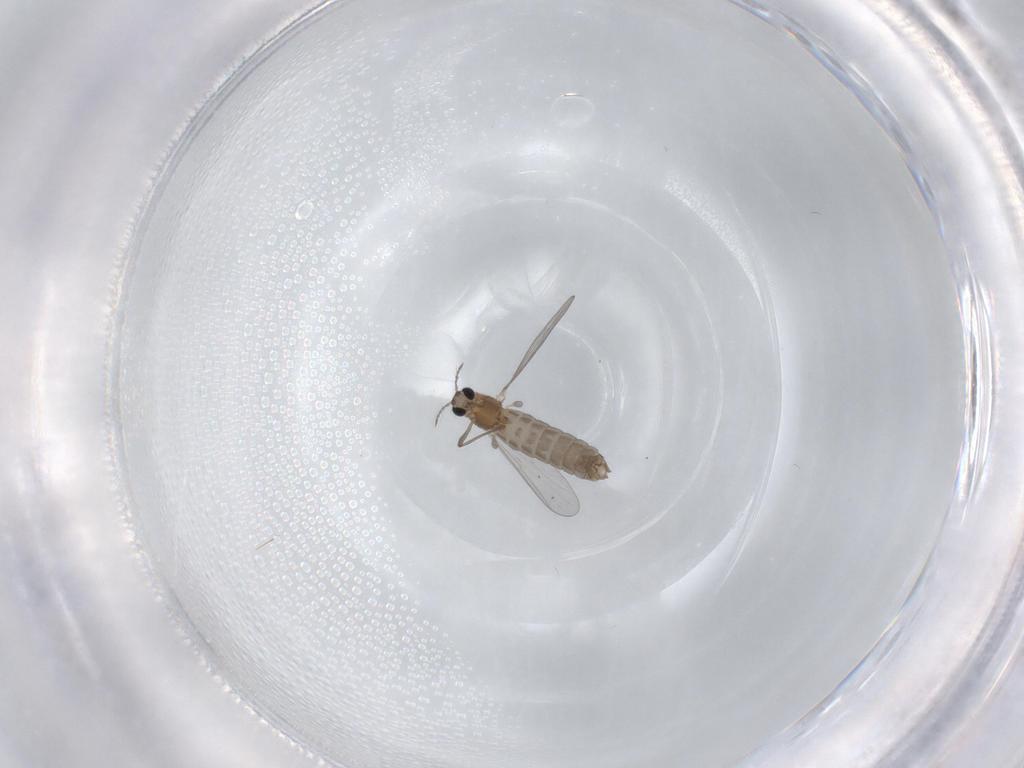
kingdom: Animalia
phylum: Arthropoda
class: Insecta
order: Diptera
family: Chironomidae
